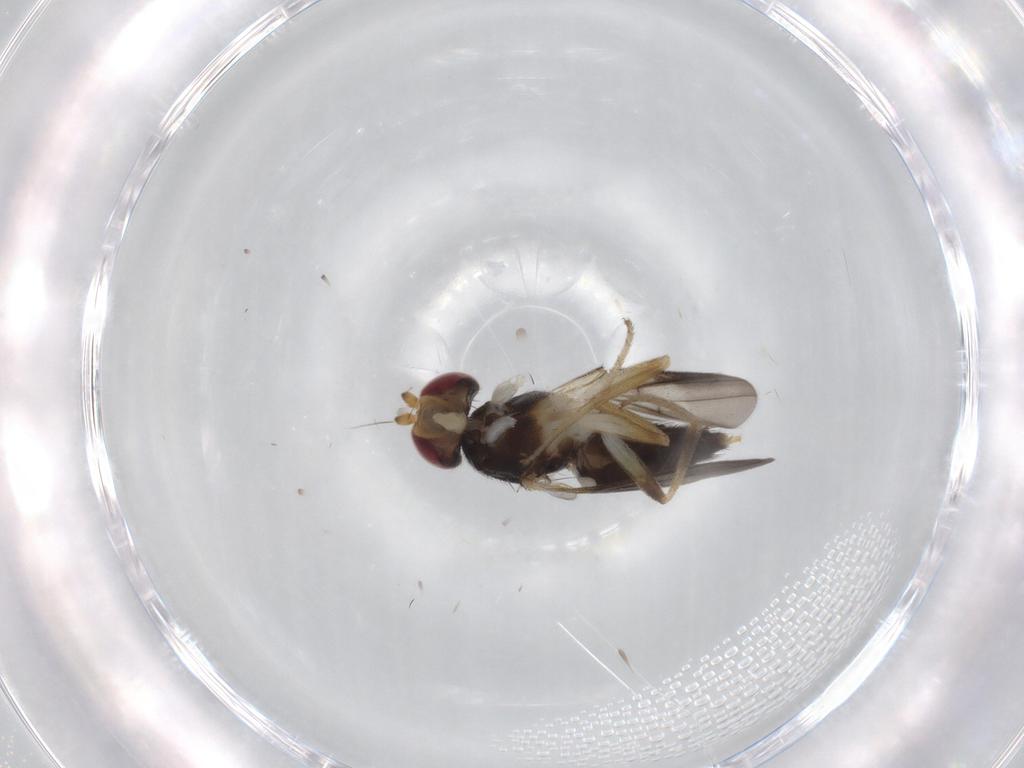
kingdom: Animalia
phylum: Arthropoda
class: Insecta
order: Diptera
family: Clusiidae
